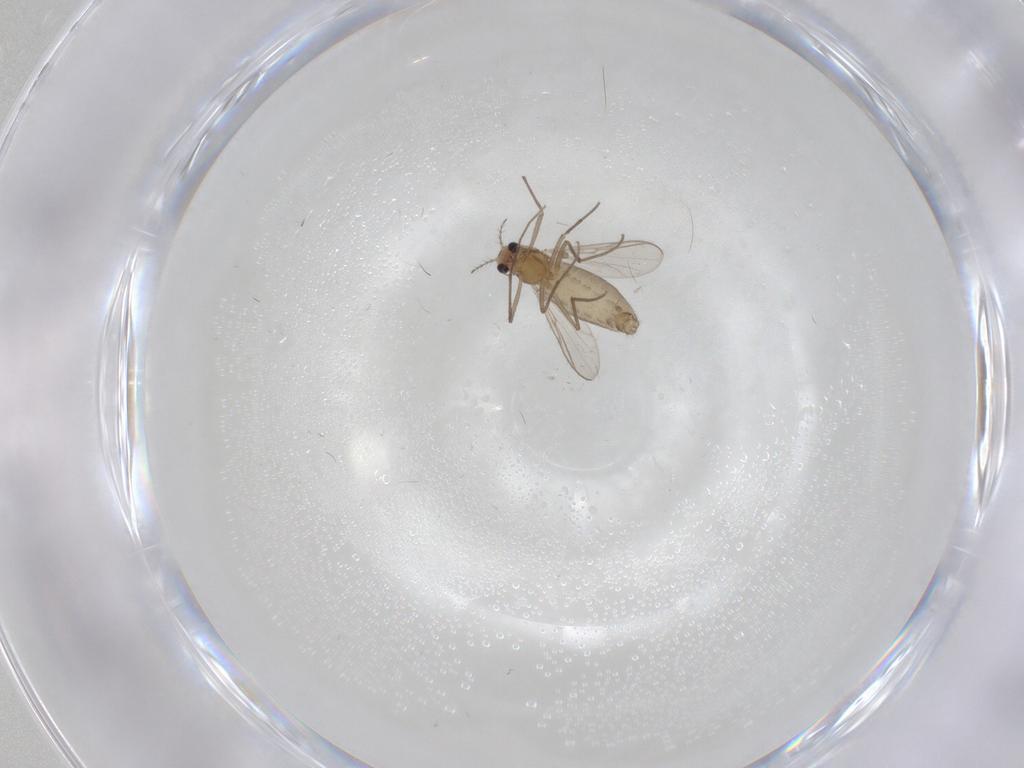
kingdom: Animalia
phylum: Arthropoda
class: Insecta
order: Diptera
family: Chironomidae
